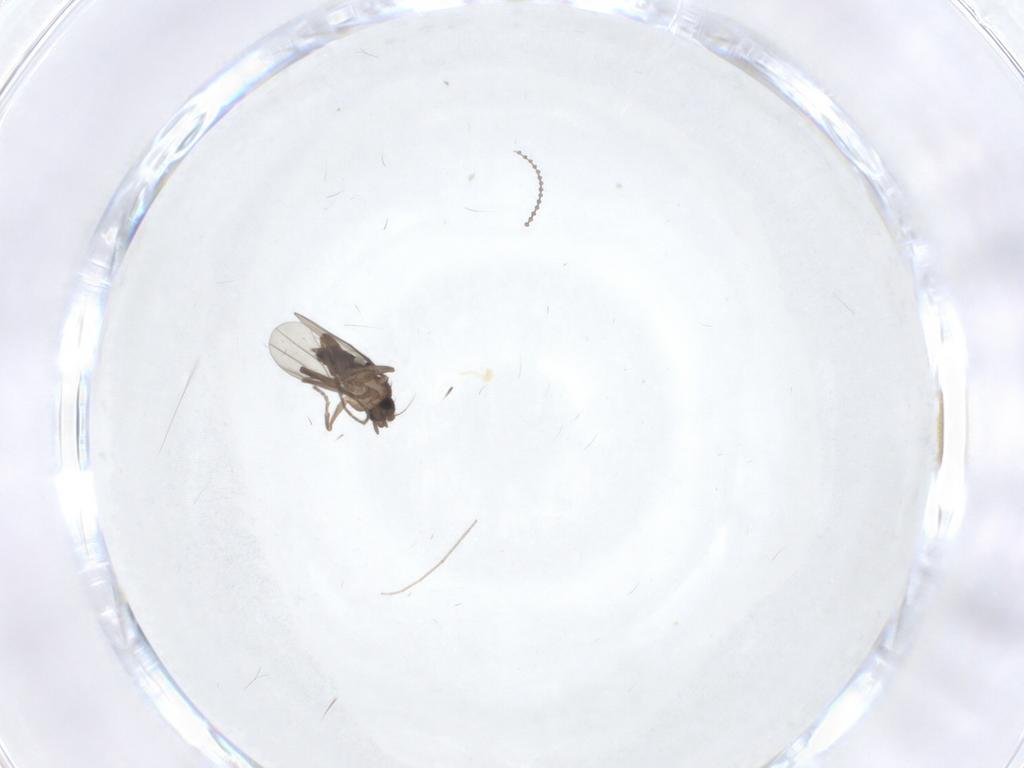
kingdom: Animalia
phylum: Arthropoda
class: Insecta
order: Diptera
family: Cecidomyiidae
